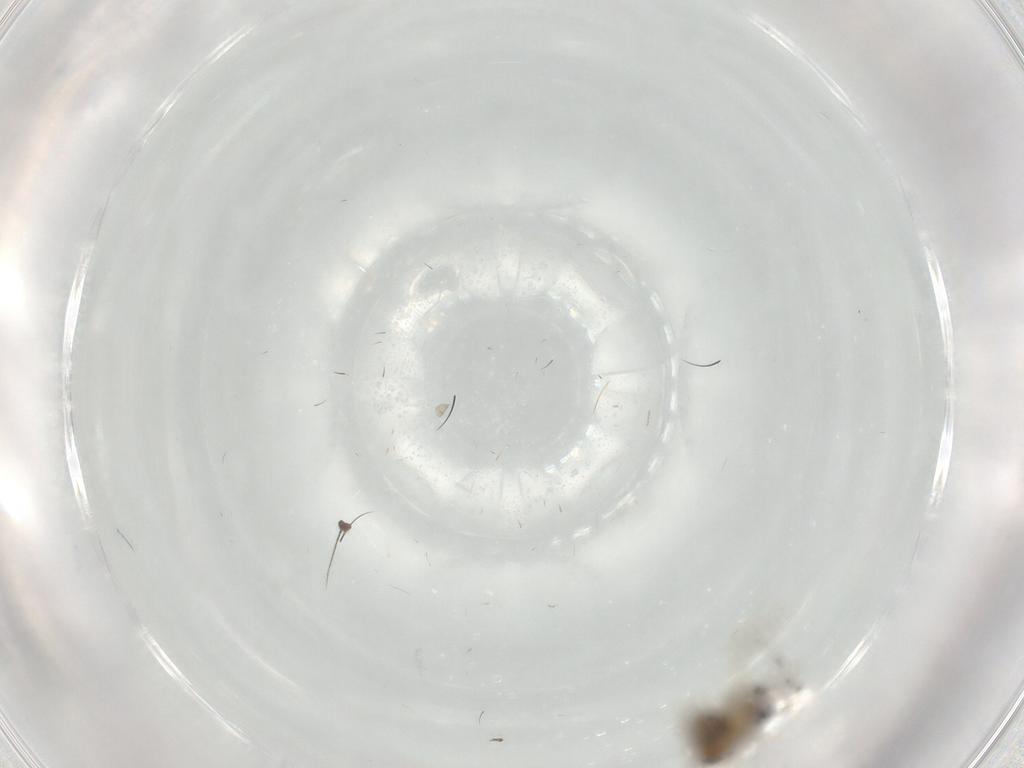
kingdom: Animalia
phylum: Arthropoda
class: Insecta
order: Diptera
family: Ceratopogonidae
